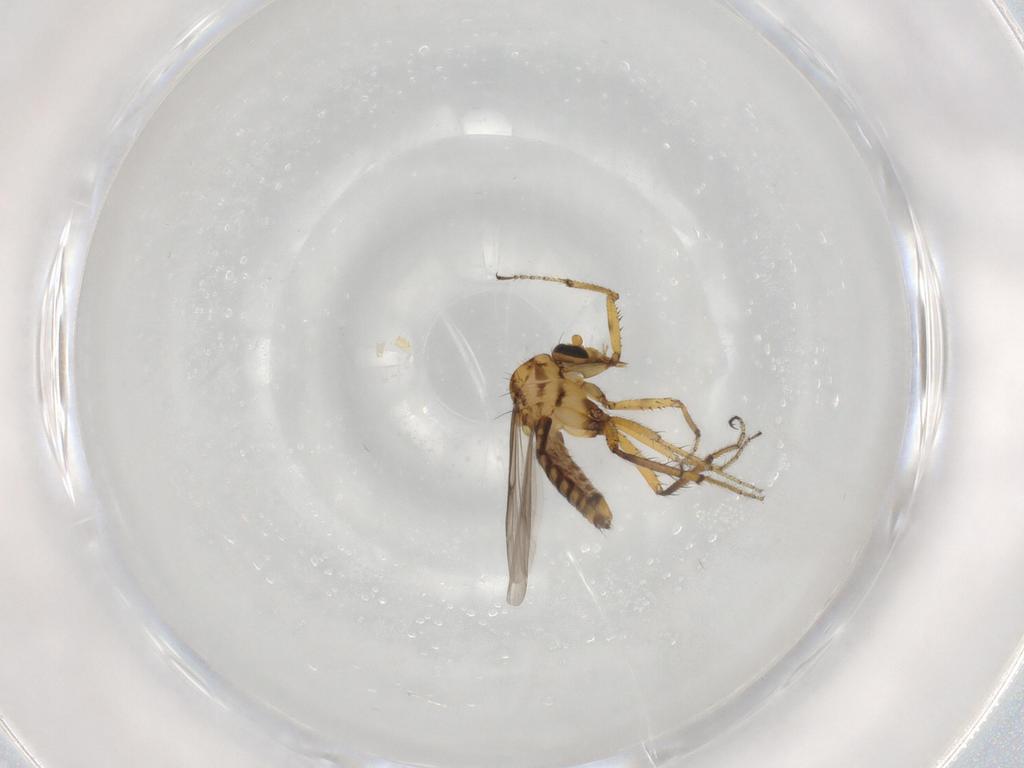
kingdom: Animalia
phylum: Arthropoda
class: Insecta
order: Diptera
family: Ceratopogonidae
